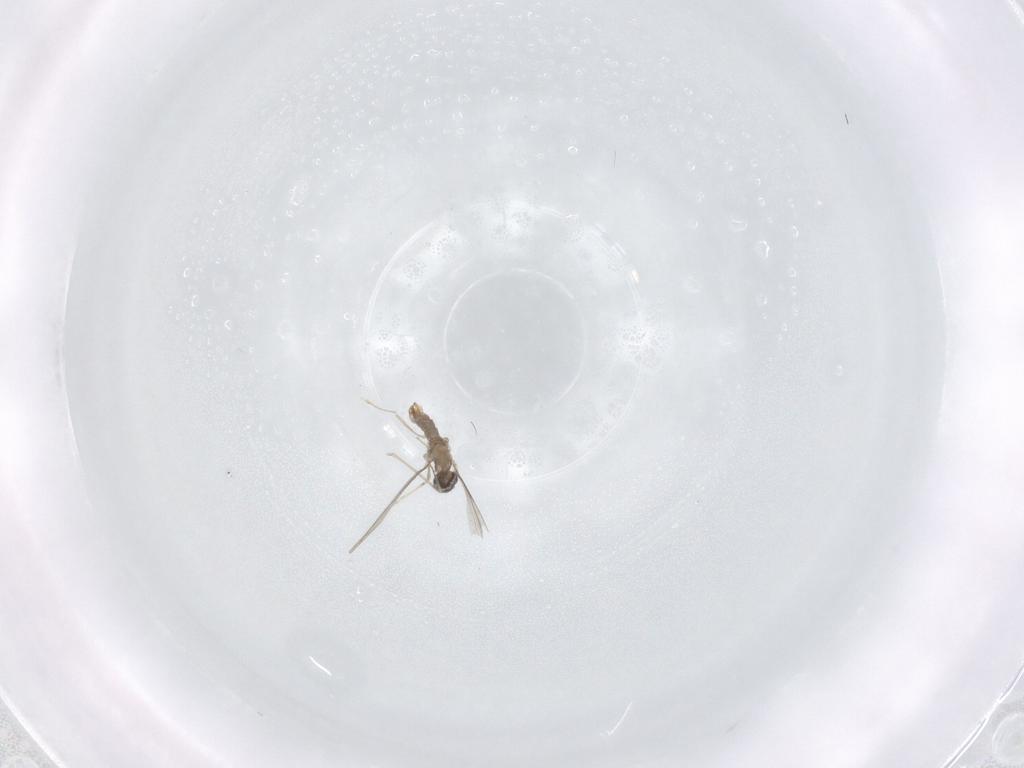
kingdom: Animalia
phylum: Arthropoda
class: Insecta
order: Diptera
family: Cecidomyiidae
